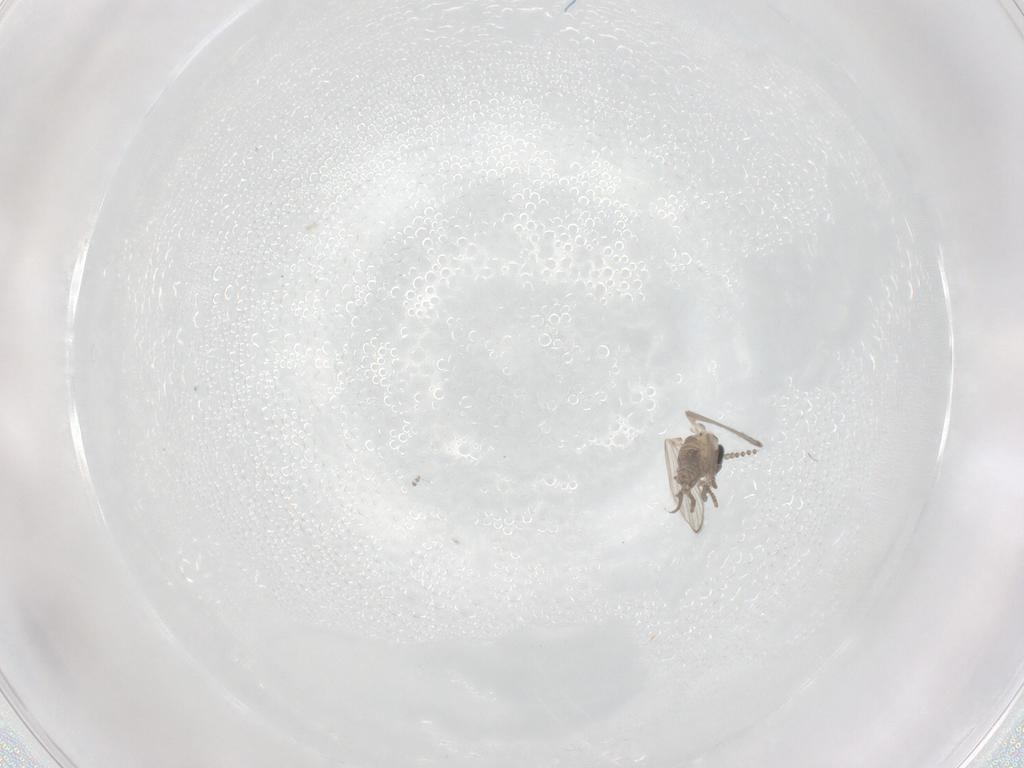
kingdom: Animalia
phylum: Arthropoda
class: Insecta
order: Diptera
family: Psychodidae
